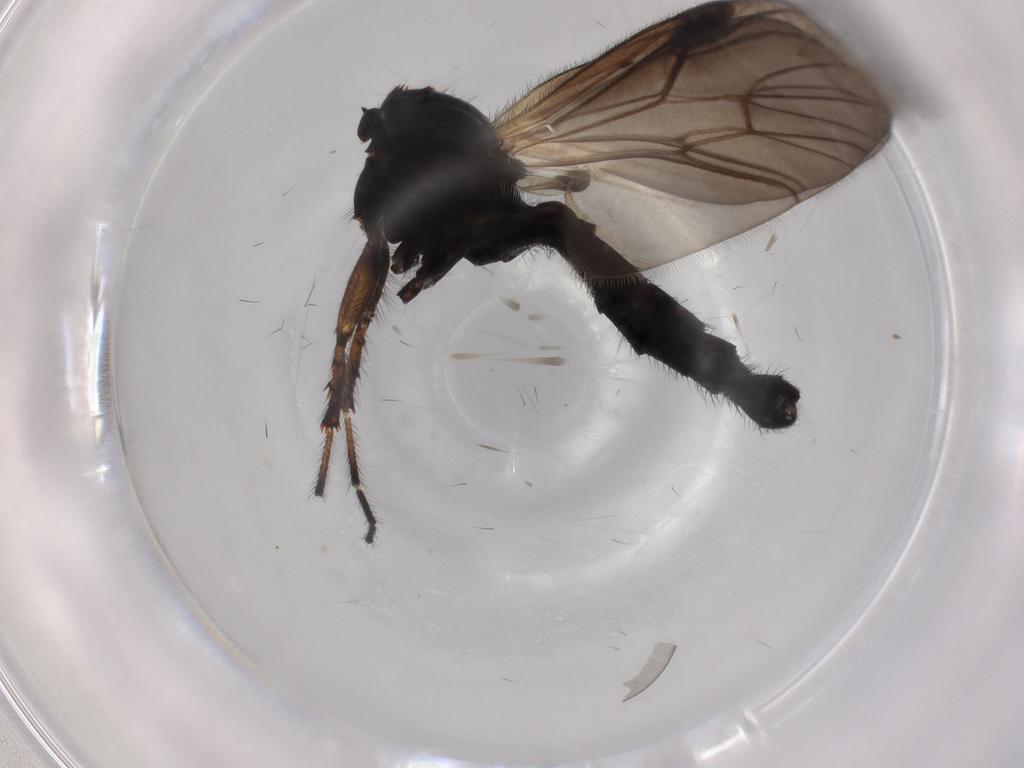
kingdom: Animalia
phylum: Arthropoda
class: Insecta
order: Diptera
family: Bibionidae
